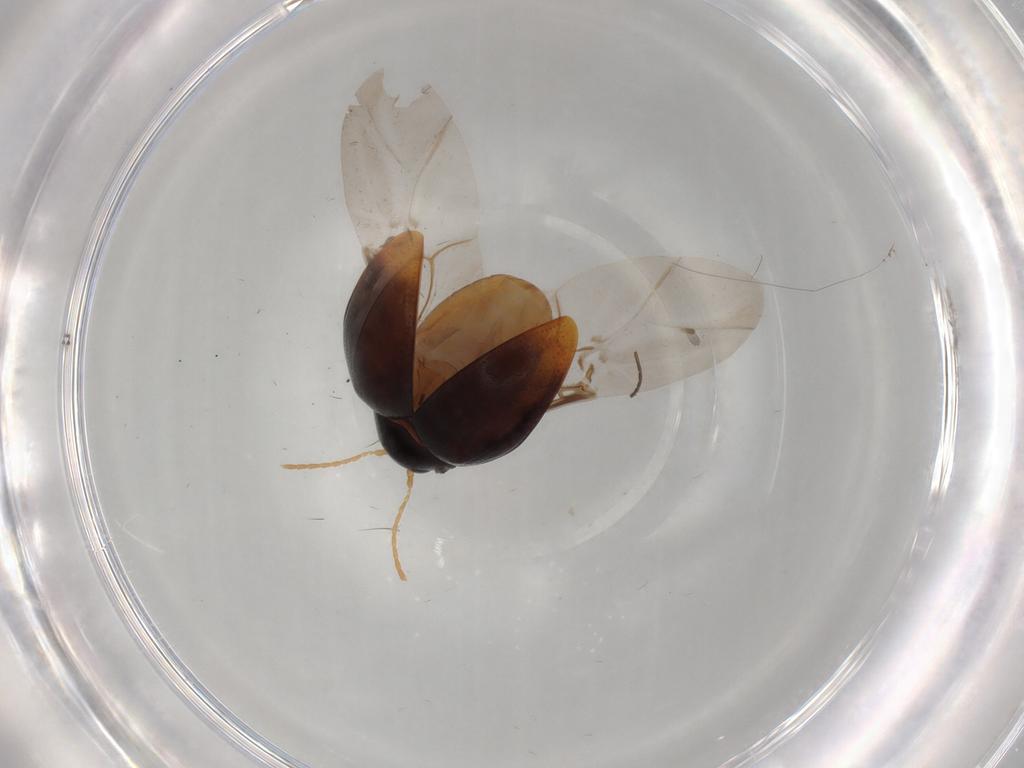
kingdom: Animalia
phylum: Arthropoda
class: Insecta
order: Coleoptera
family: Chrysomelidae
